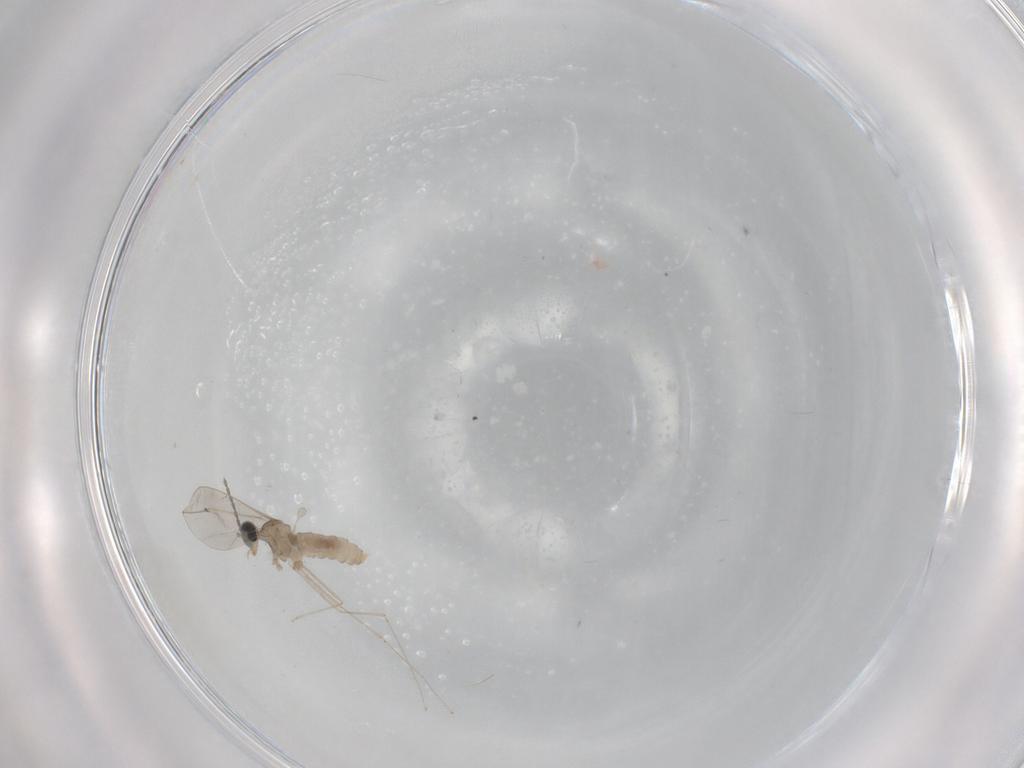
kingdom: Animalia
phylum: Arthropoda
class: Insecta
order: Diptera
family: Cecidomyiidae
